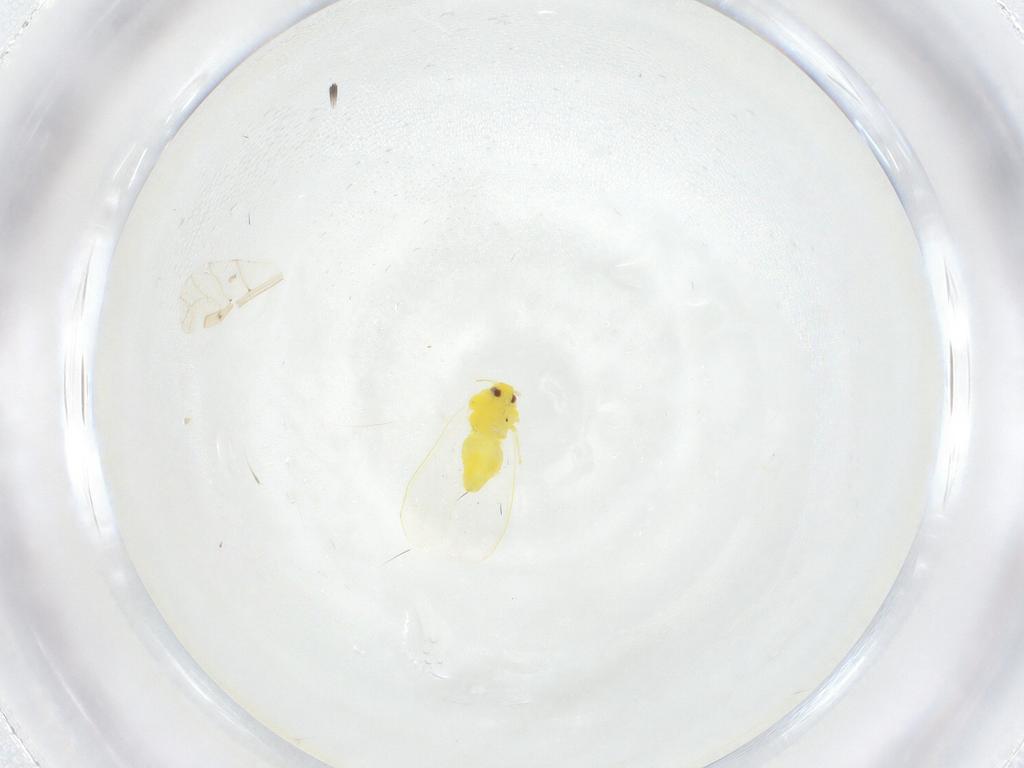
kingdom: Animalia
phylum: Arthropoda
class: Insecta
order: Hemiptera
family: Aleyrodidae
